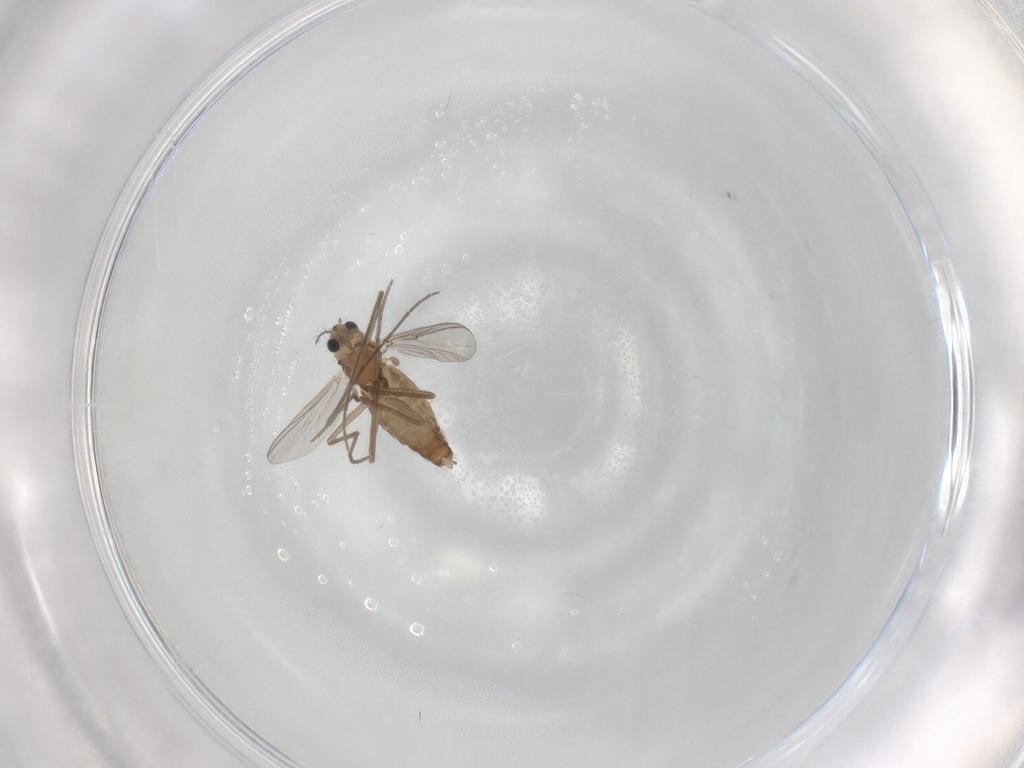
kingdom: Animalia
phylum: Arthropoda
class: Insecta
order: Diptera
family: Chironomidae
